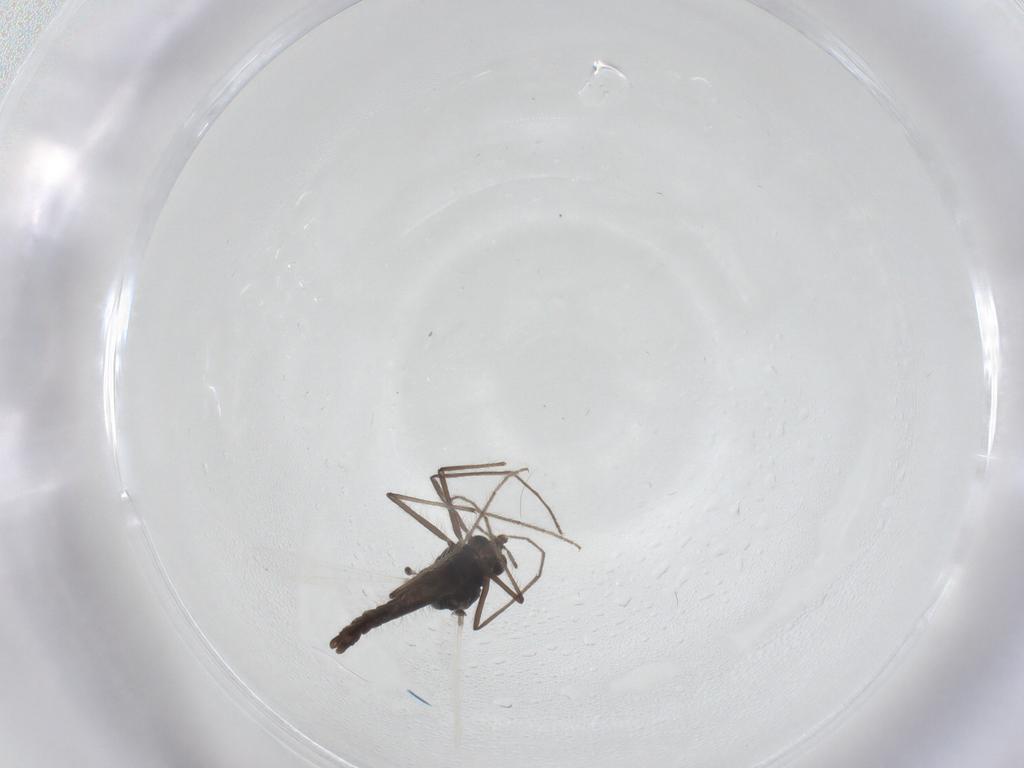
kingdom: Animalia
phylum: Arthropoda
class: Insecta
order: Diptera
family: Chironomidae
